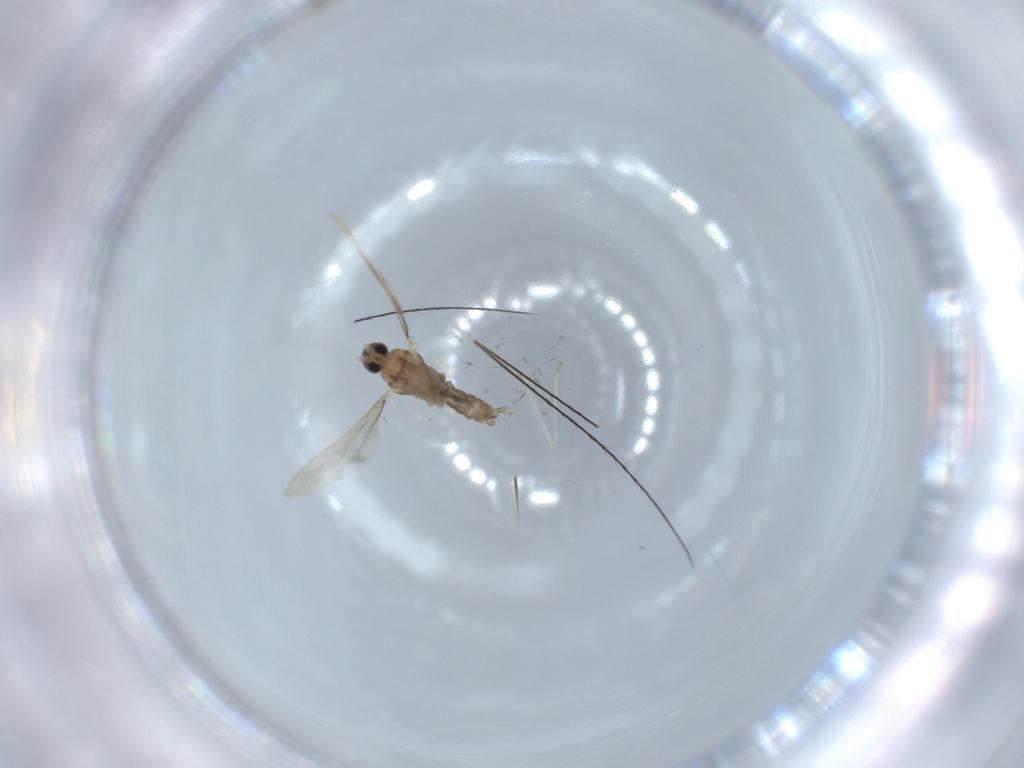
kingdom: Animalia
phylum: Arthropoda
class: Insecta
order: Diptera
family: Cecidomyiidae
